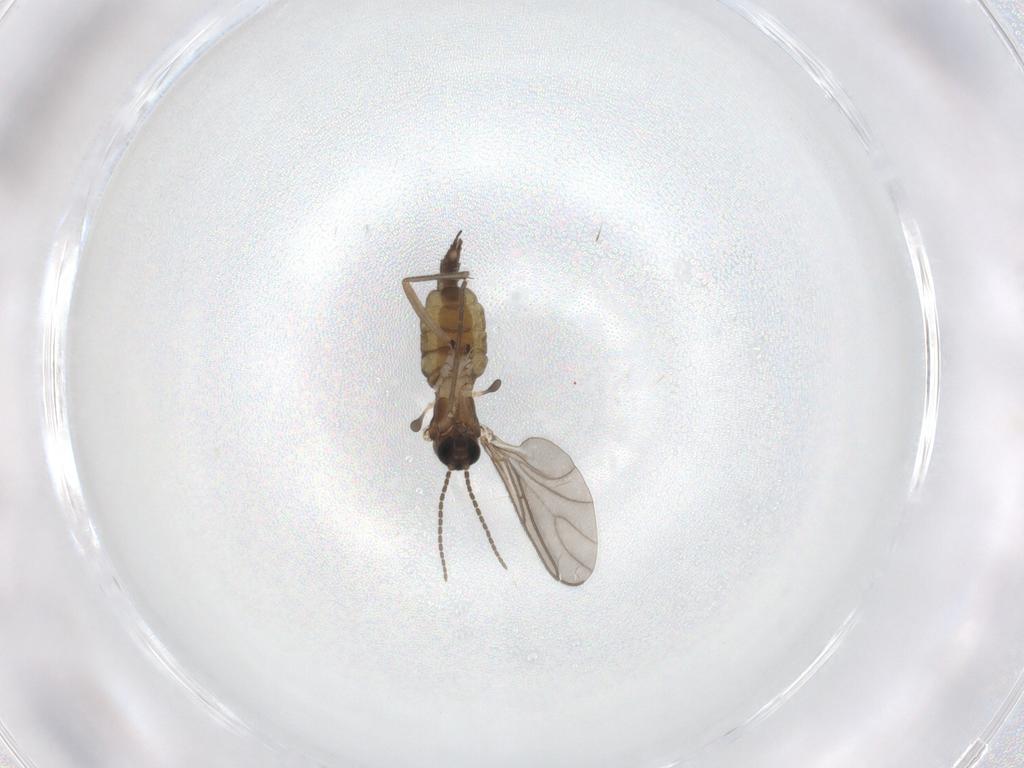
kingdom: Animalia
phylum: Arthropoda
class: Insecta
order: Diptera
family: Sciaridae
